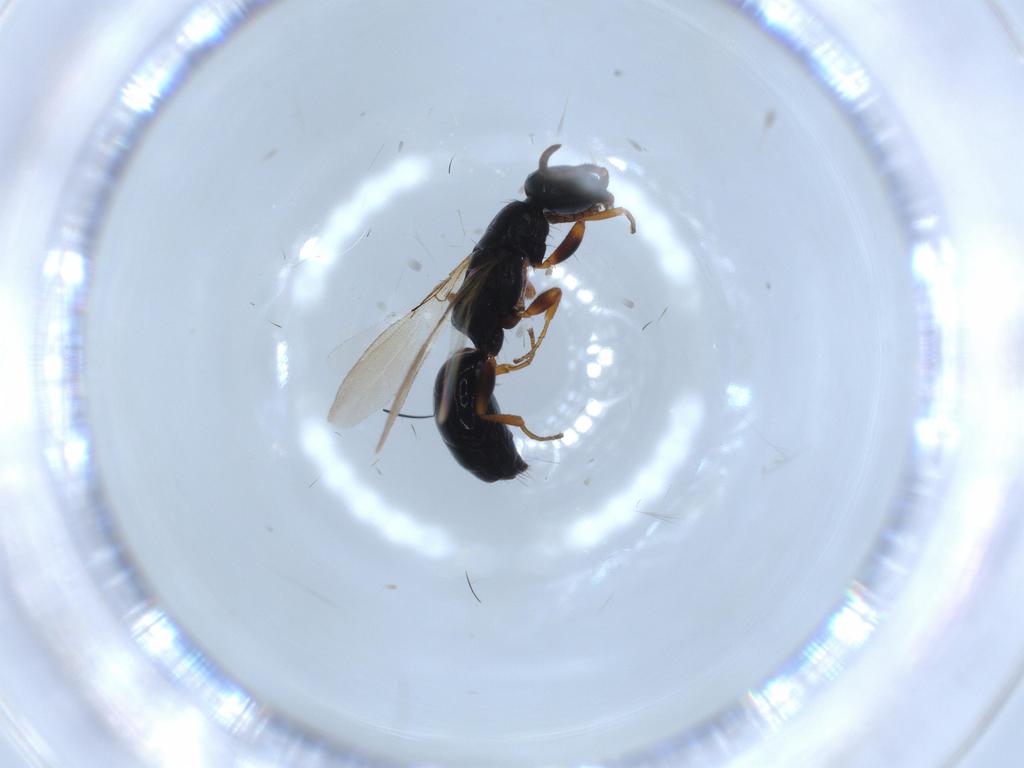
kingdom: Animalia
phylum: Arthropoda
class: Insecta
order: Hymenoptera
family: Bethylidae
